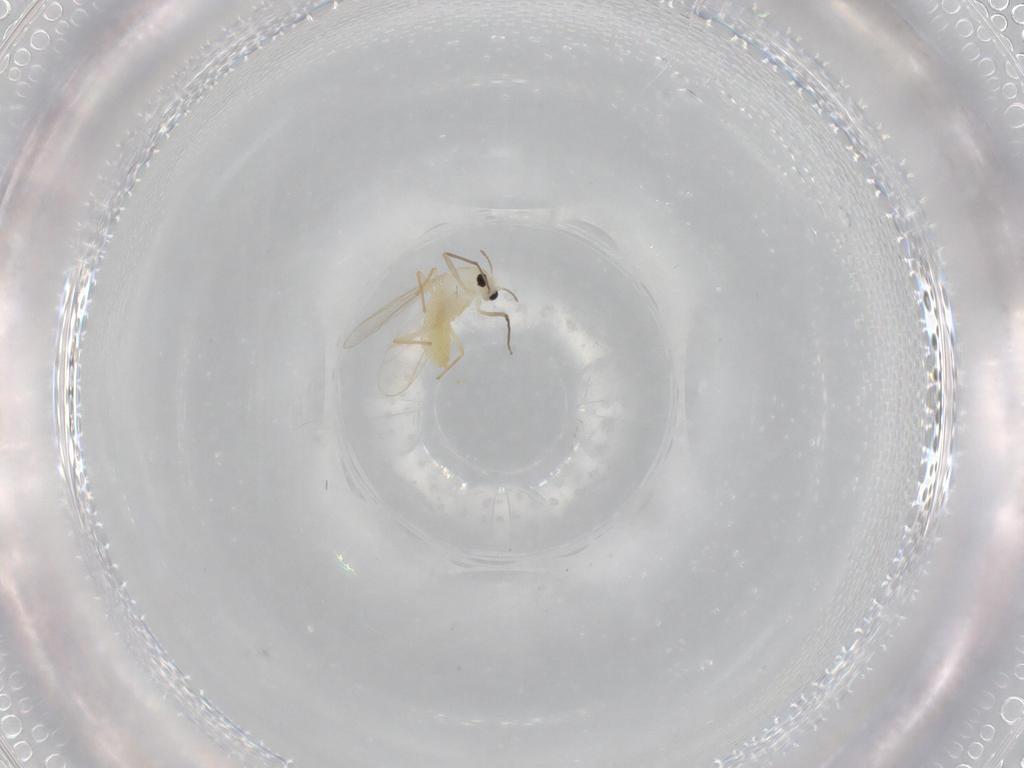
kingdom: Animalia
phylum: Arthropoda
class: Insecta
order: Diptera
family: Chironomidae
